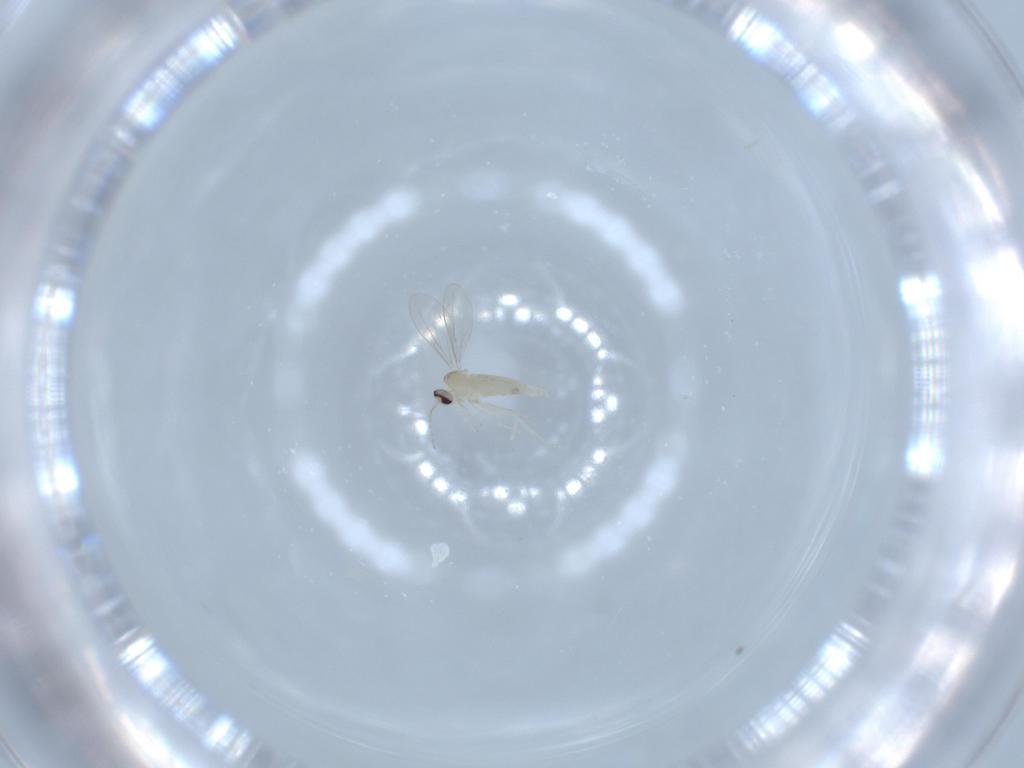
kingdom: Animalia
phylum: Arthropoda
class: Insecta
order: Diptera
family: Cecidomyiidae
